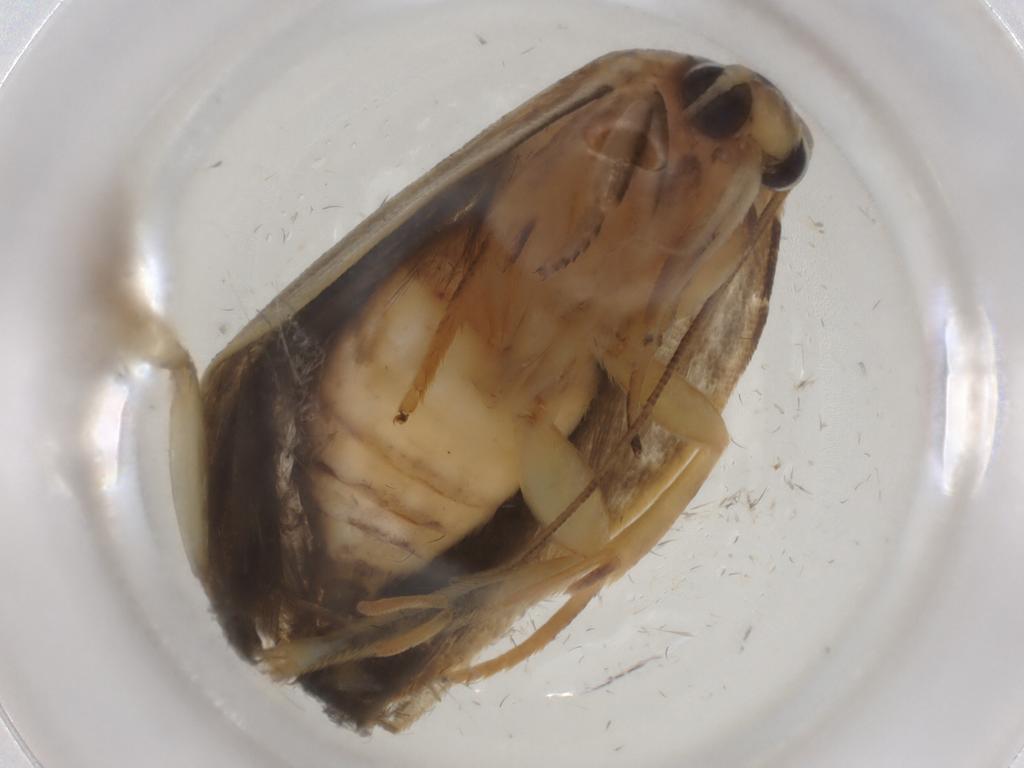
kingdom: Animalia
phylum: Arthropoda
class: Insecta
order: Lepidoptera
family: Gelechiidae
